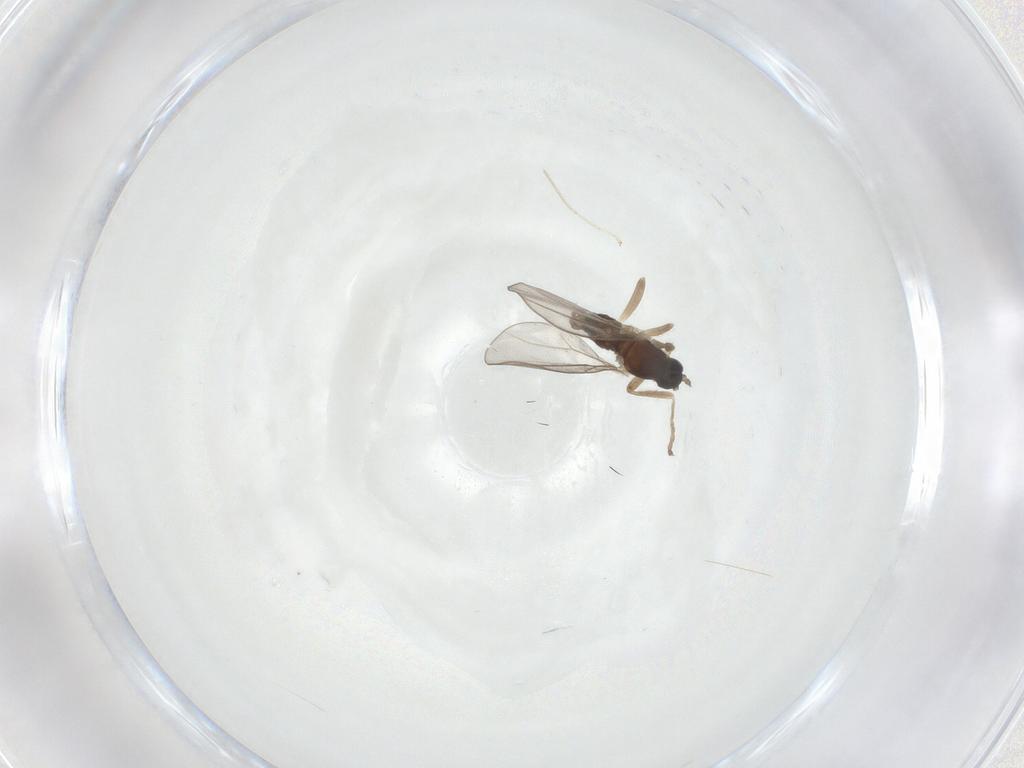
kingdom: Animalia
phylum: Arthropoda
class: Insecta
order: Diptera
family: Cecidomyiidae
